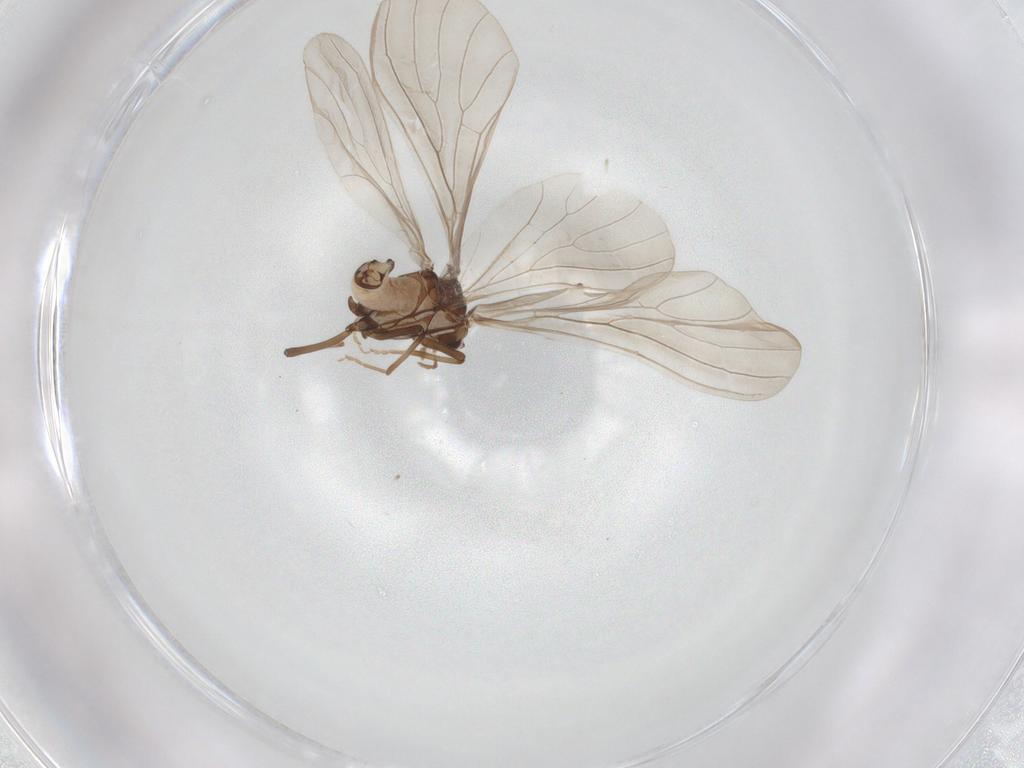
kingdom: Animalia
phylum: Arthropoda
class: Insecta
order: Neuroptera
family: Coniopterygidae
